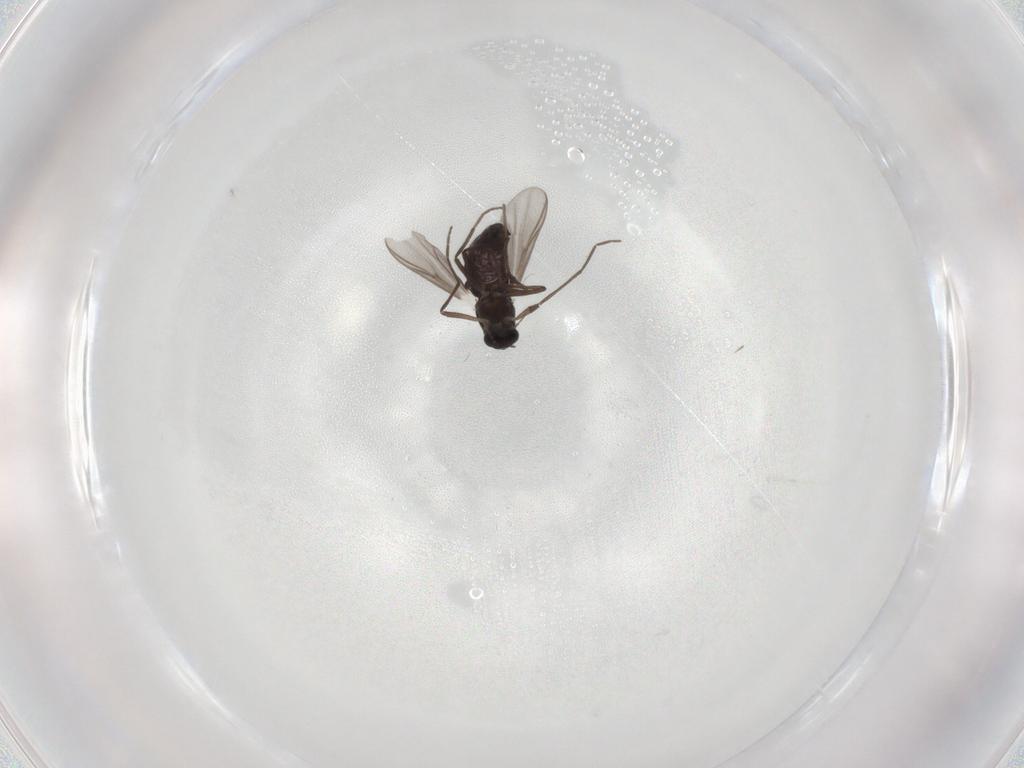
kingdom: Animalia
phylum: Arthropoda
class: Insecta
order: Diptera
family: Chironomidae
